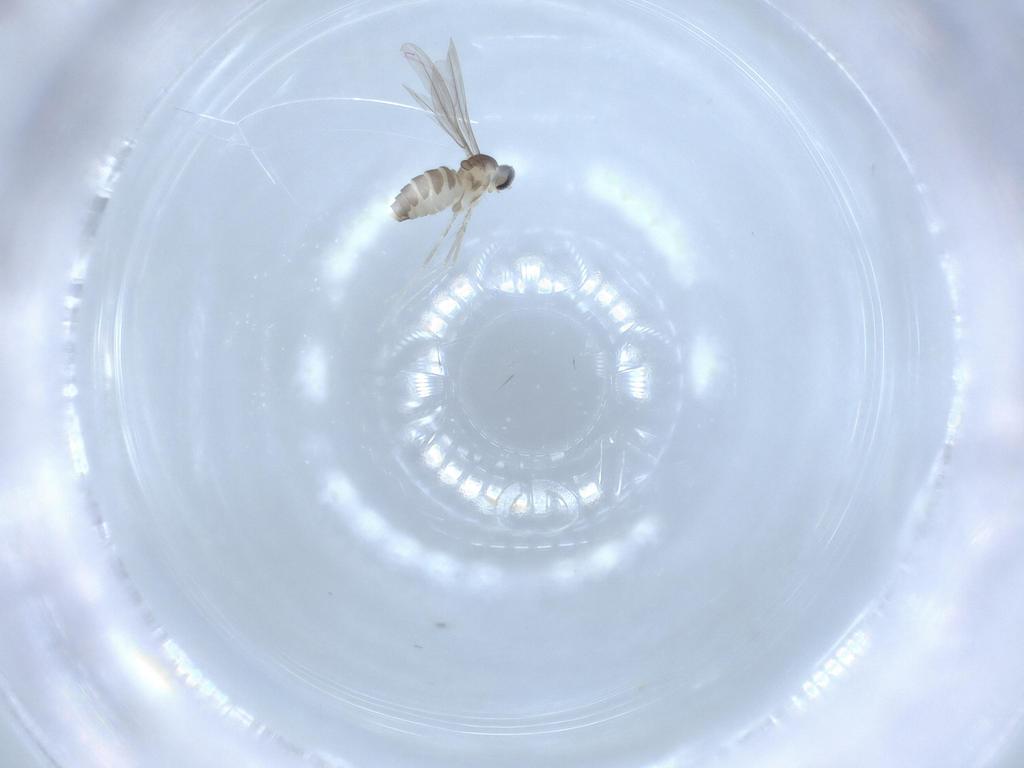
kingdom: Animalia
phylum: Arthropoda
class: Insecta
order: Diptera
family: Cecidomyiidae
